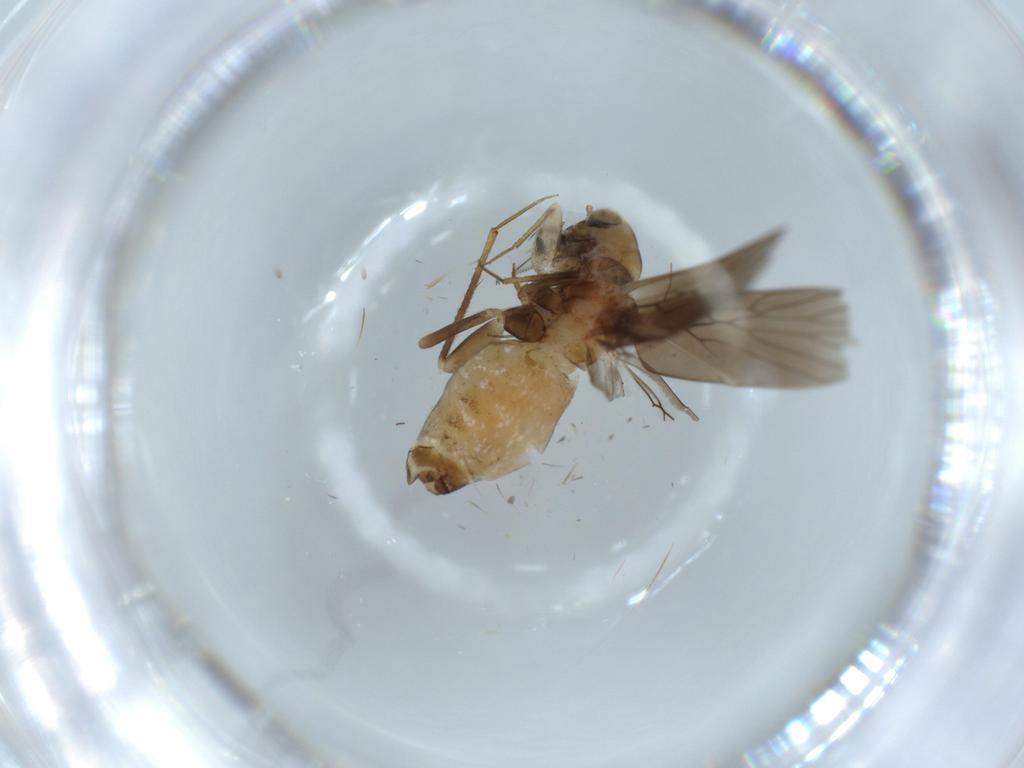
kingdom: Animalia
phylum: Arthropoda
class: Insecta
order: Psocodea
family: Lepidopsocidae
